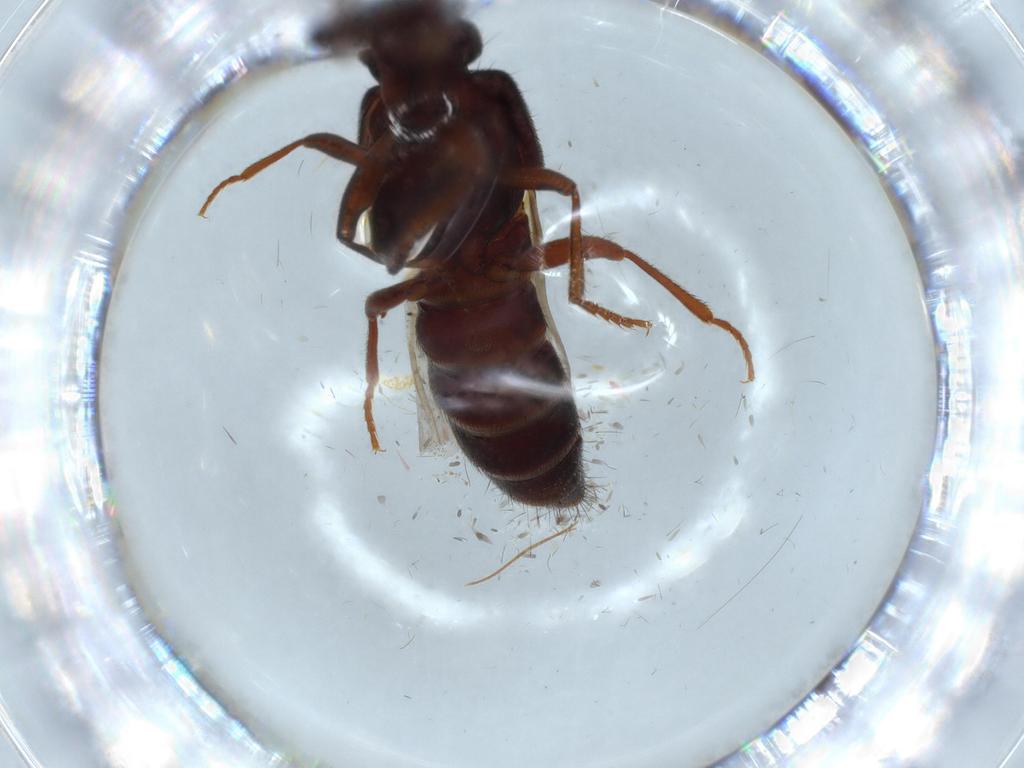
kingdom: Animalia
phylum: Arthropoda
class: Insecta
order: Coleoptera
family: Staphylinidae
